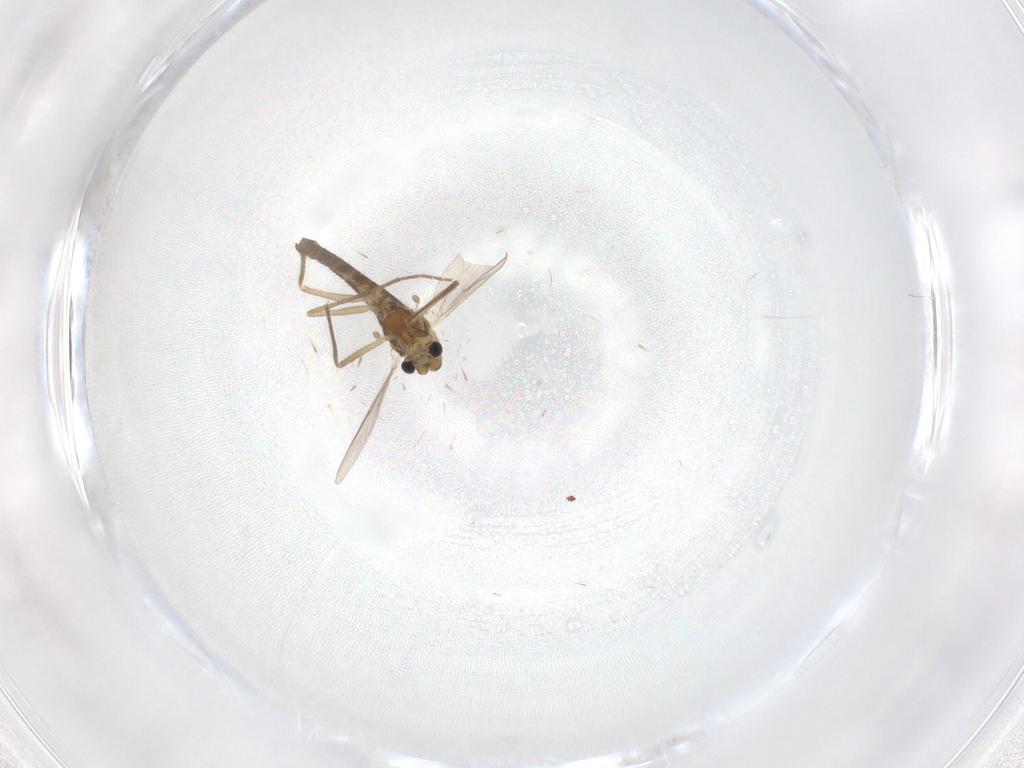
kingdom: Animalia
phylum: Arthropoda
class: Insecta
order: Diptera
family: Chironomidae
